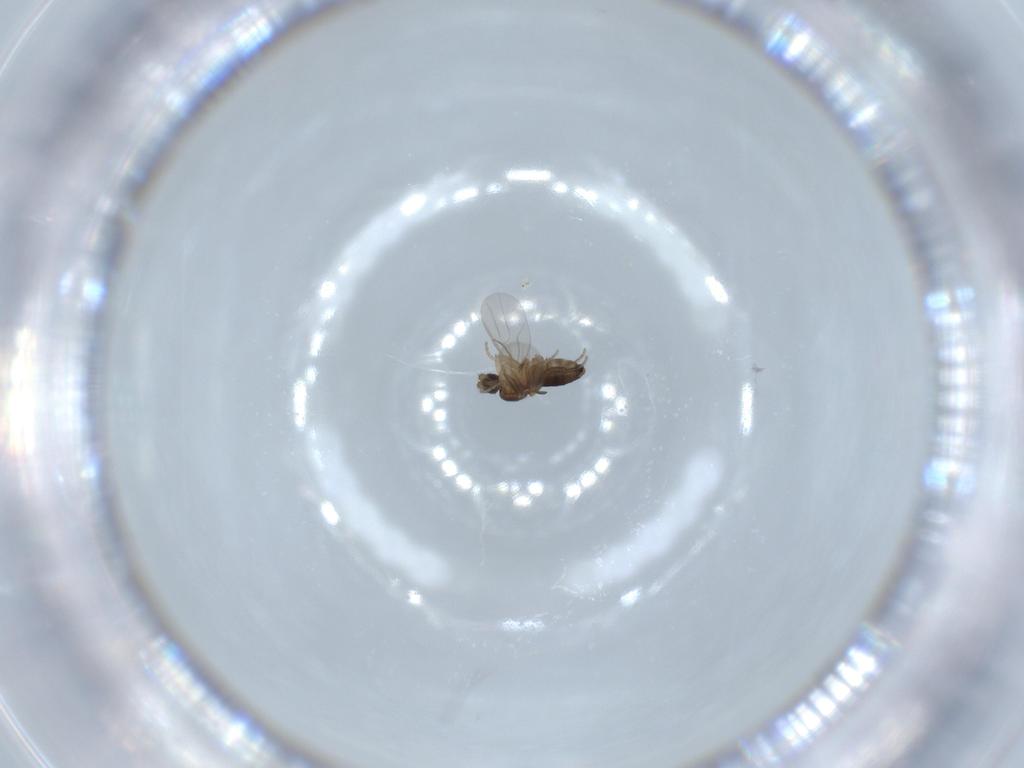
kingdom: Animalia
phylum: Arthropoda
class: Insecta
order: Diptera
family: Phoridae
